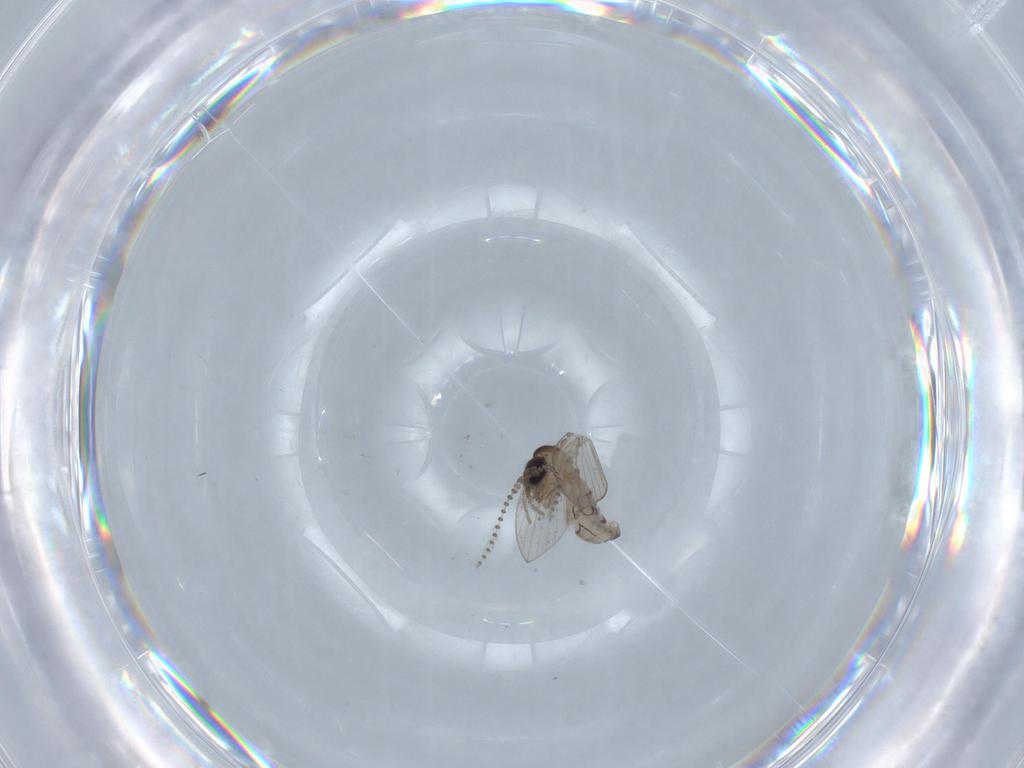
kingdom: Animalia
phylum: Arthropoda
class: Insecta
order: Diptera
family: Psychodidae
